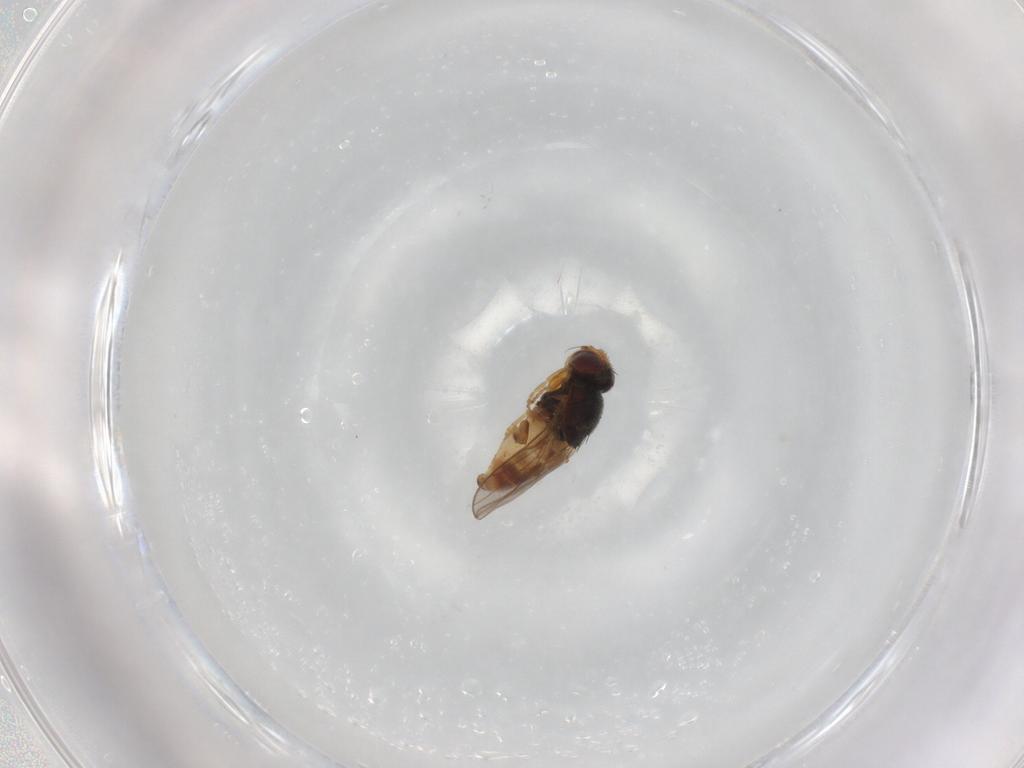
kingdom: Animalia
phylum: Arthropoda
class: Insecta
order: Diptera
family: Chloropidae
